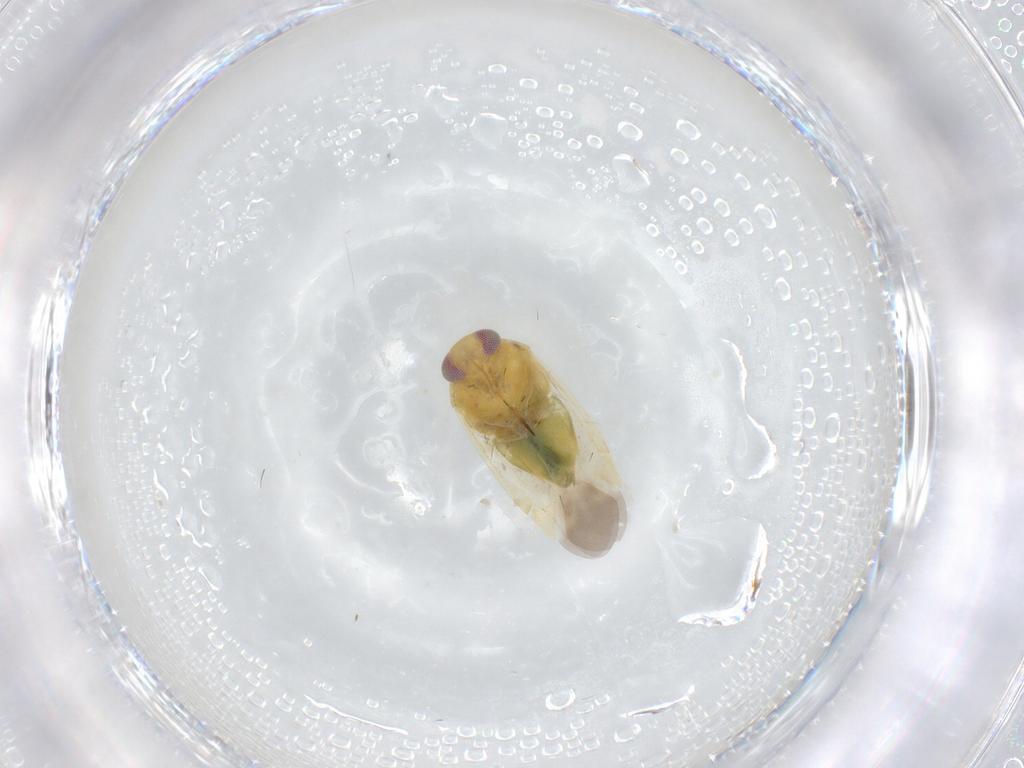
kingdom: Animalia
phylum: Arthropoda
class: Insecta
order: Hemiptera
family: Miridae
